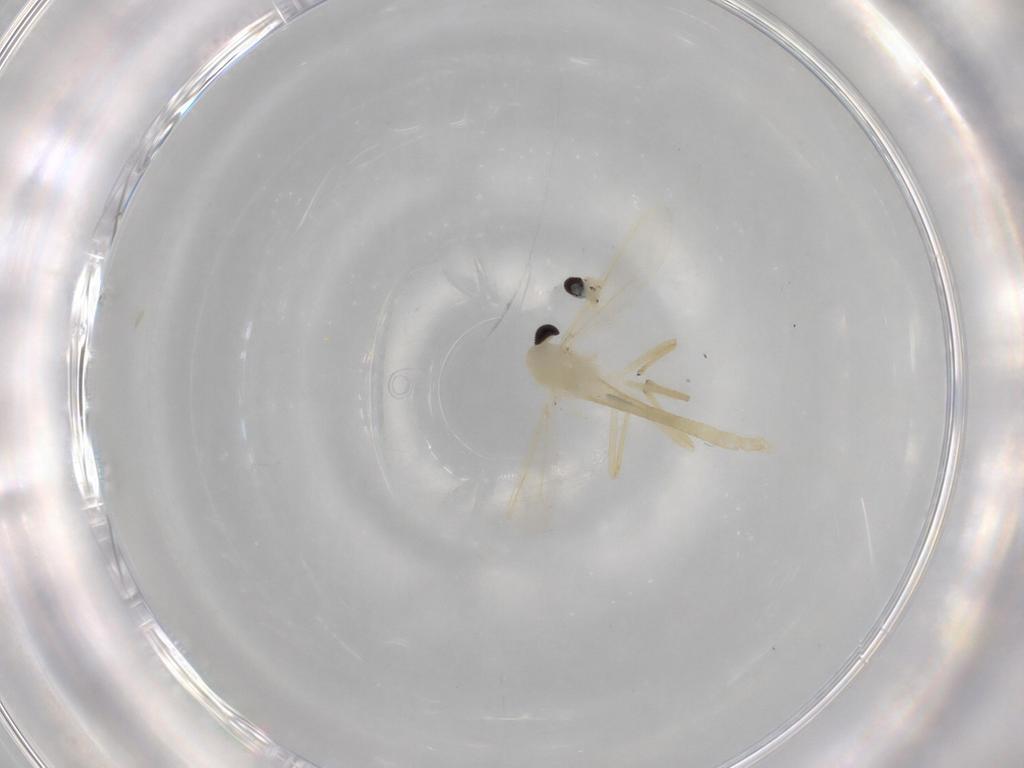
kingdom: Animalia
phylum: Arthropoda
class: Insecta
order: Diptera
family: Chironomidae
